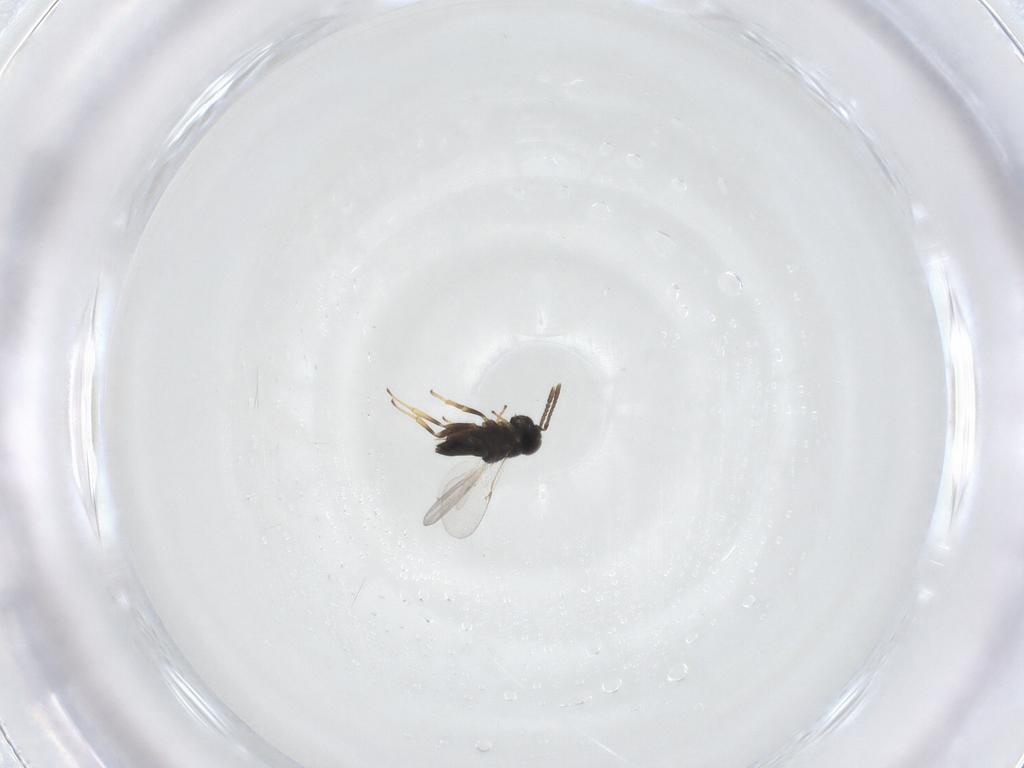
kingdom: Animalia
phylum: Arthropoda
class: Insecta
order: Hymenoptera
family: Encyrtidae
